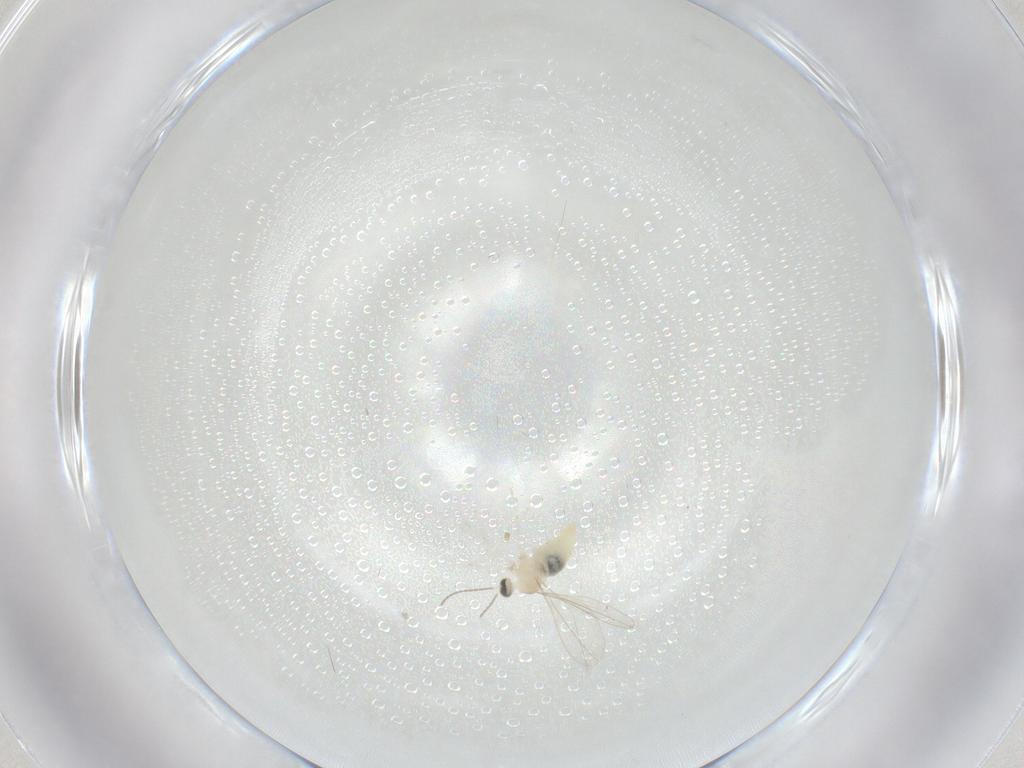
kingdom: Animalia
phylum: Arthropoda
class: Insecta
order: Diptera
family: Cecidomyiidae
